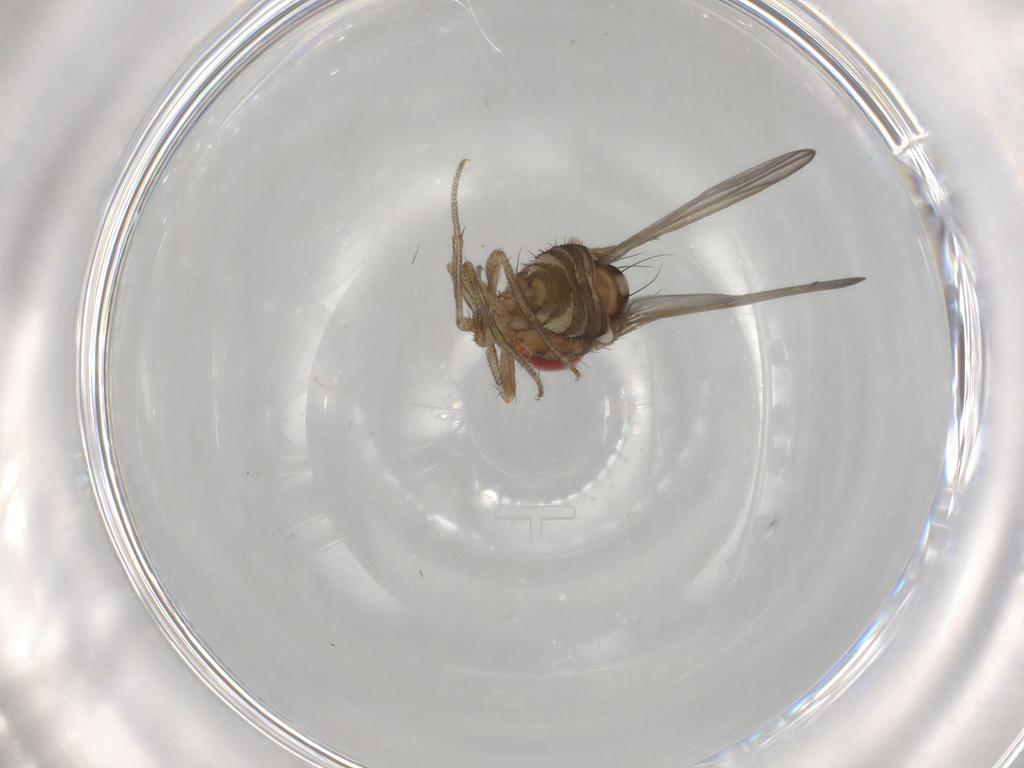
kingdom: Animalia
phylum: Arthropoda
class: Insecta
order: Diptera
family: Drosophilidae
